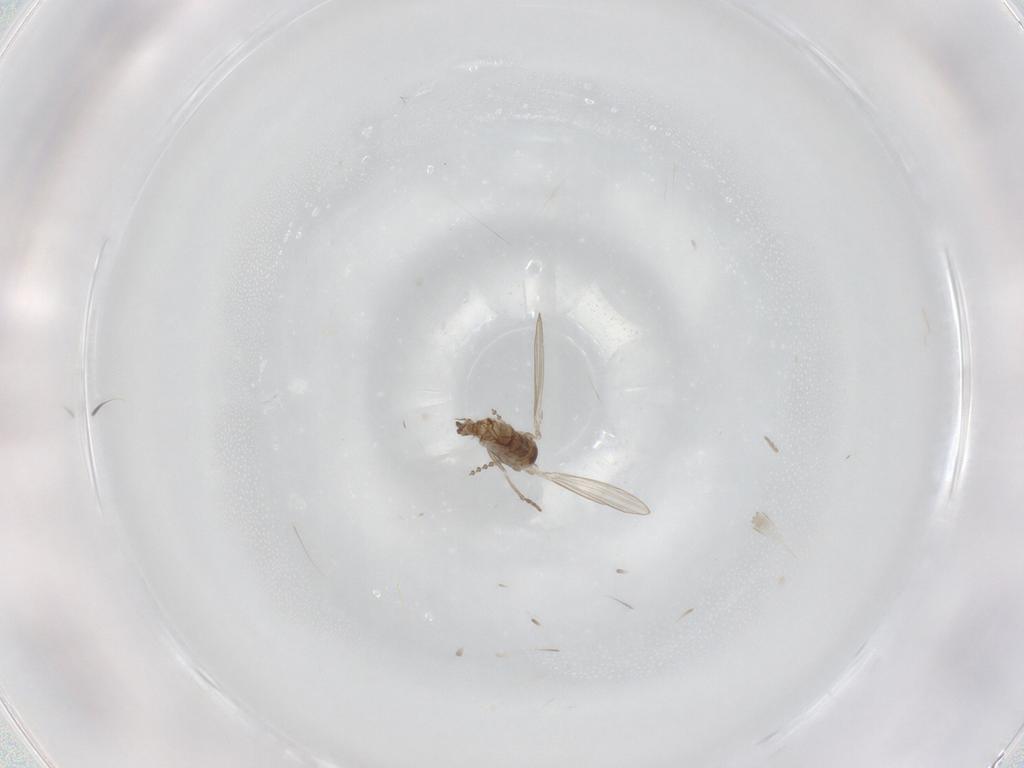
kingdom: Animalia
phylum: Arthropoda
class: Insecta
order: Diptera
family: Psychodidae
